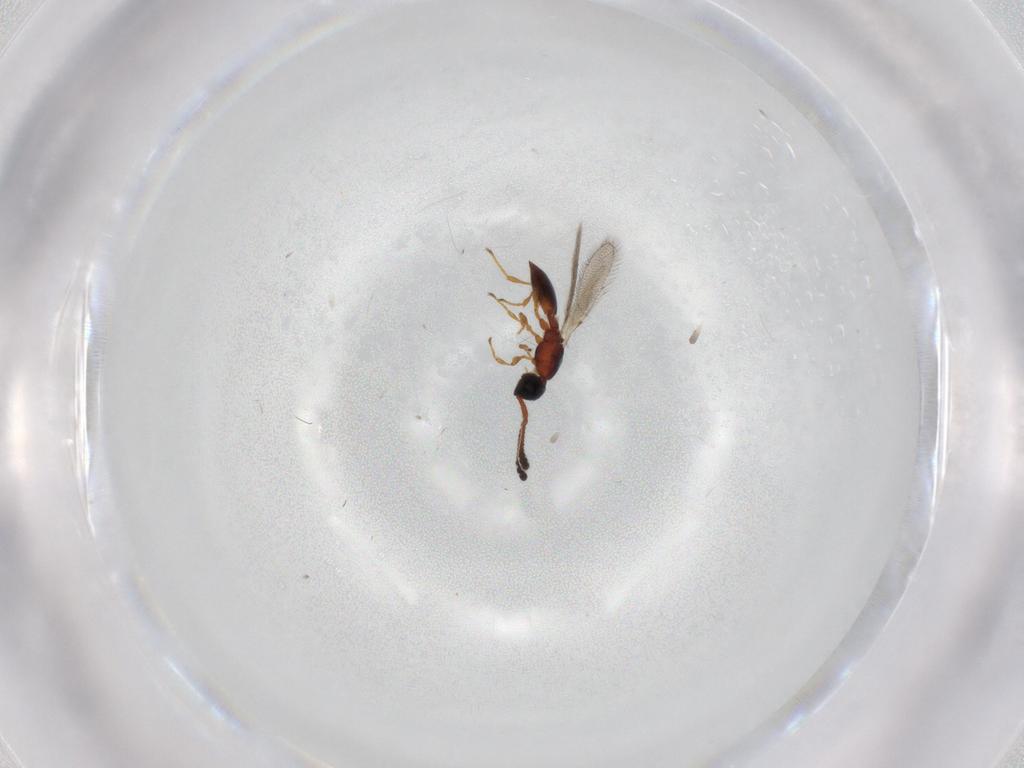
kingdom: Animalia
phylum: Arthropoda
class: Insecta
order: Hymenoptera
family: Diapriidae
